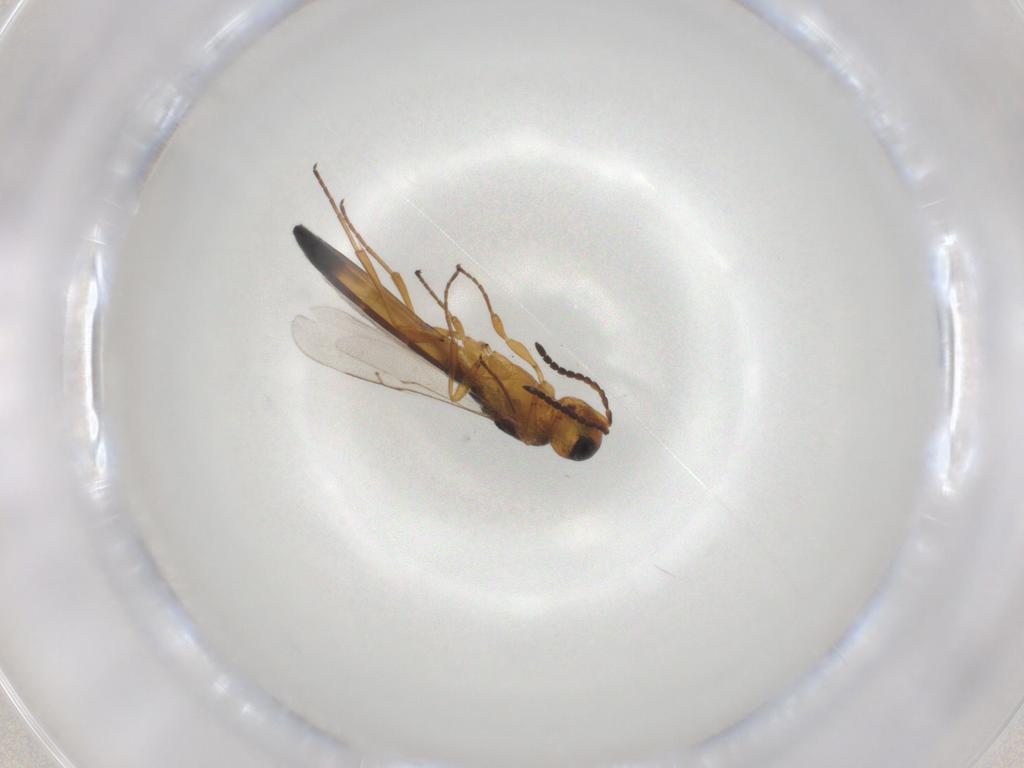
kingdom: Animalia
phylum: Arthropoda
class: Insecta
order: Hymenoptera
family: Scelionidae
